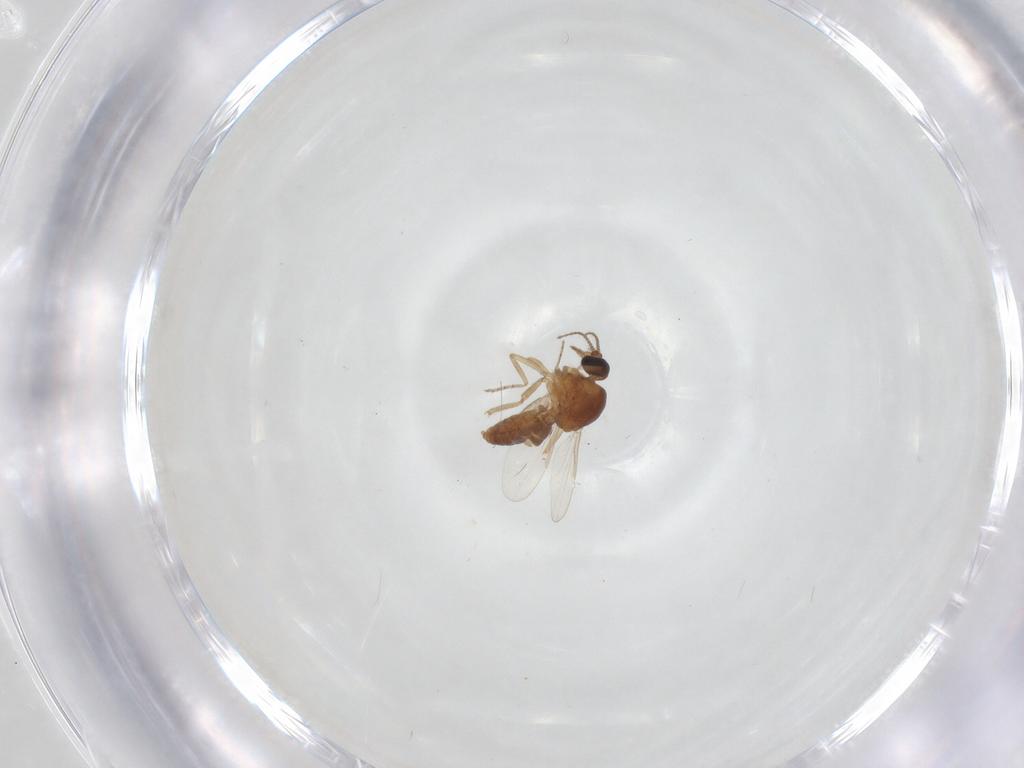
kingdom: Animalia
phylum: Arthropoda
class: Insecta
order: Diptera
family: Ceratopogonidae
